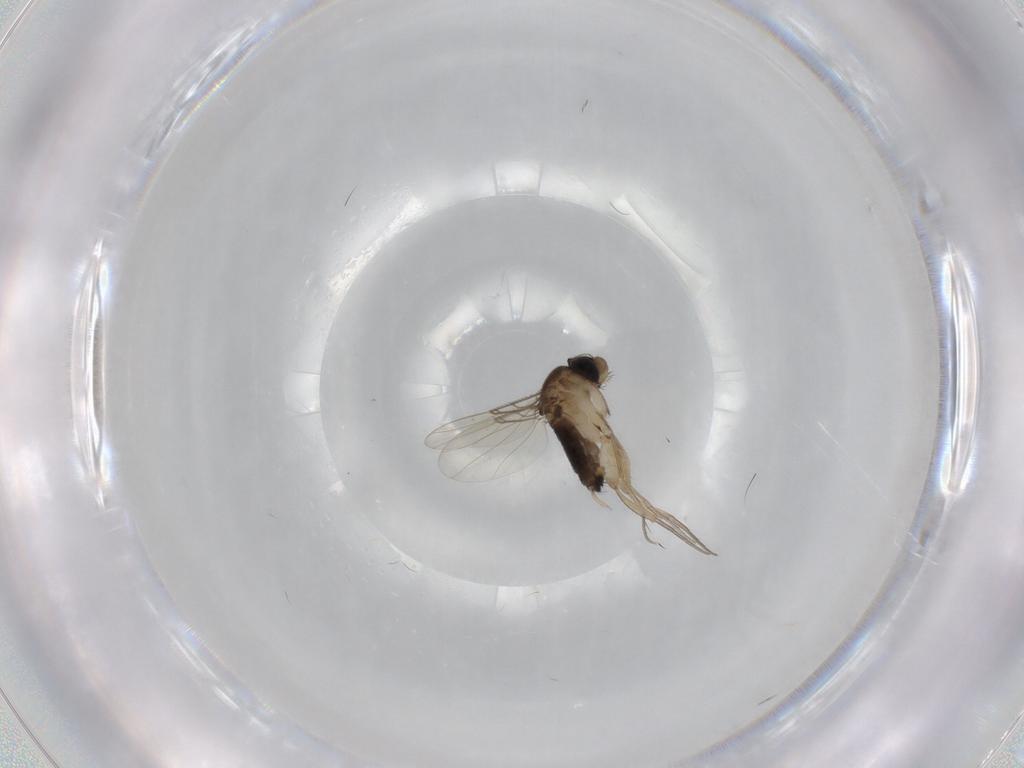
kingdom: Animalia
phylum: Arthropoda
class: Insecta
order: Diptera
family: Phoridae
